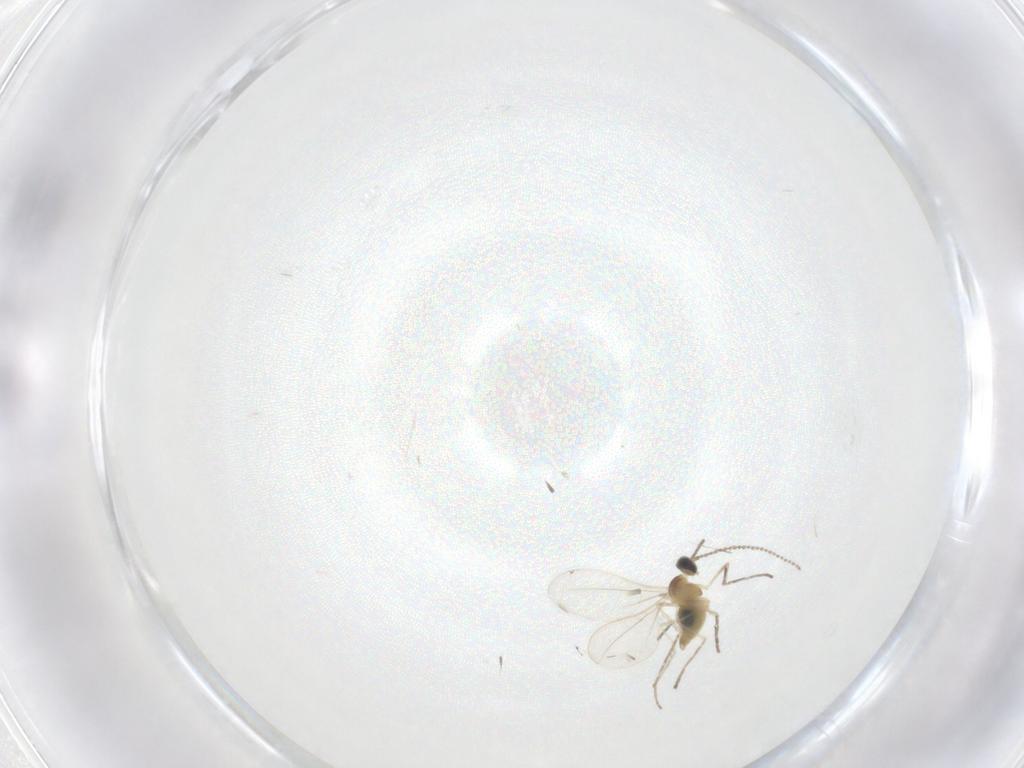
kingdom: Animalia
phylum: Arthropoda
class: Insecta
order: Diptera
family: Cecidomyiidae
